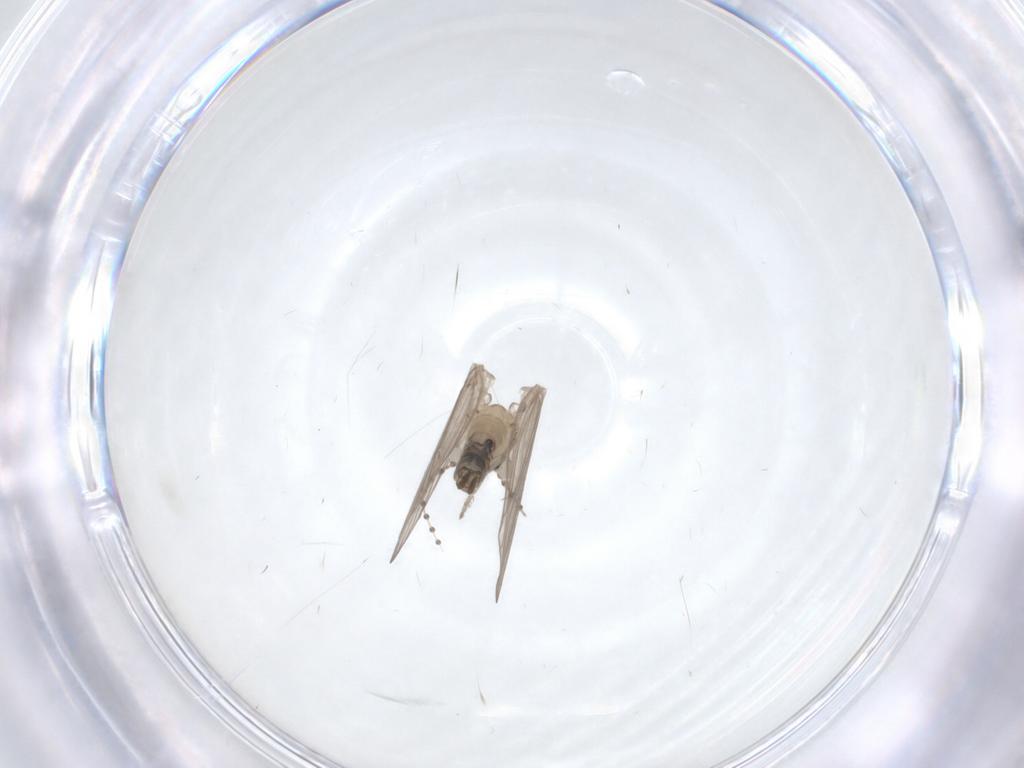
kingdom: Animalia
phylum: Arthropoda
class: Insecta
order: Diptera
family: Psychodidae
